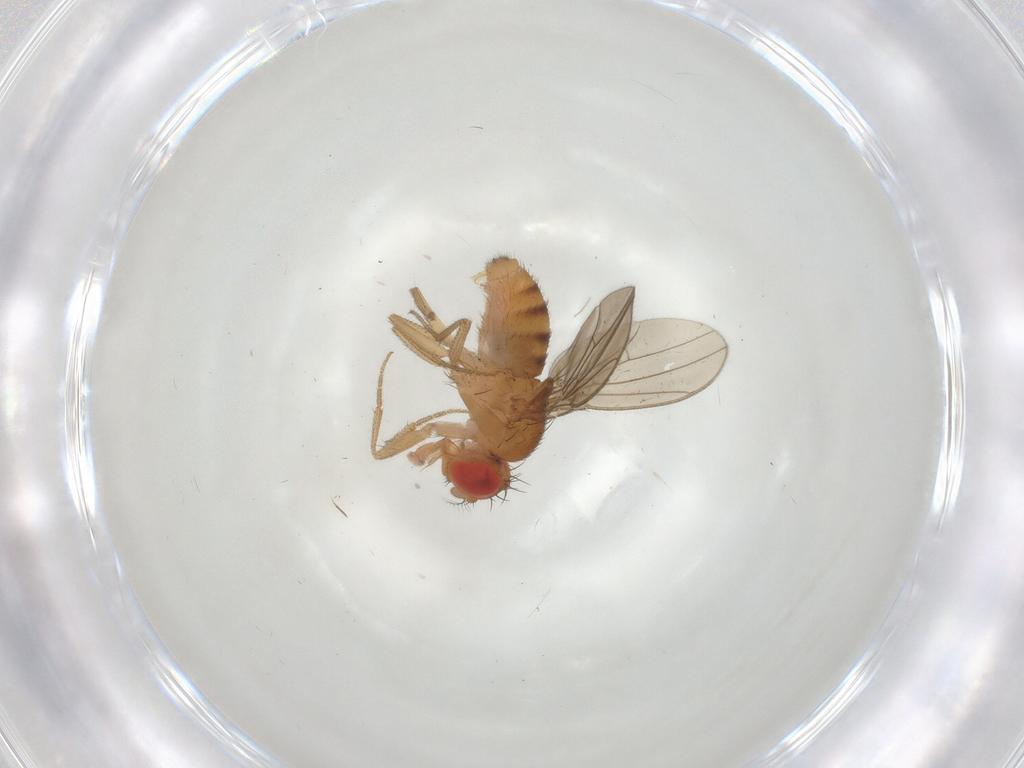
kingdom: Animalia
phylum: Arthropoda
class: Insecta
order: Diptera
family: Drosophilidae
